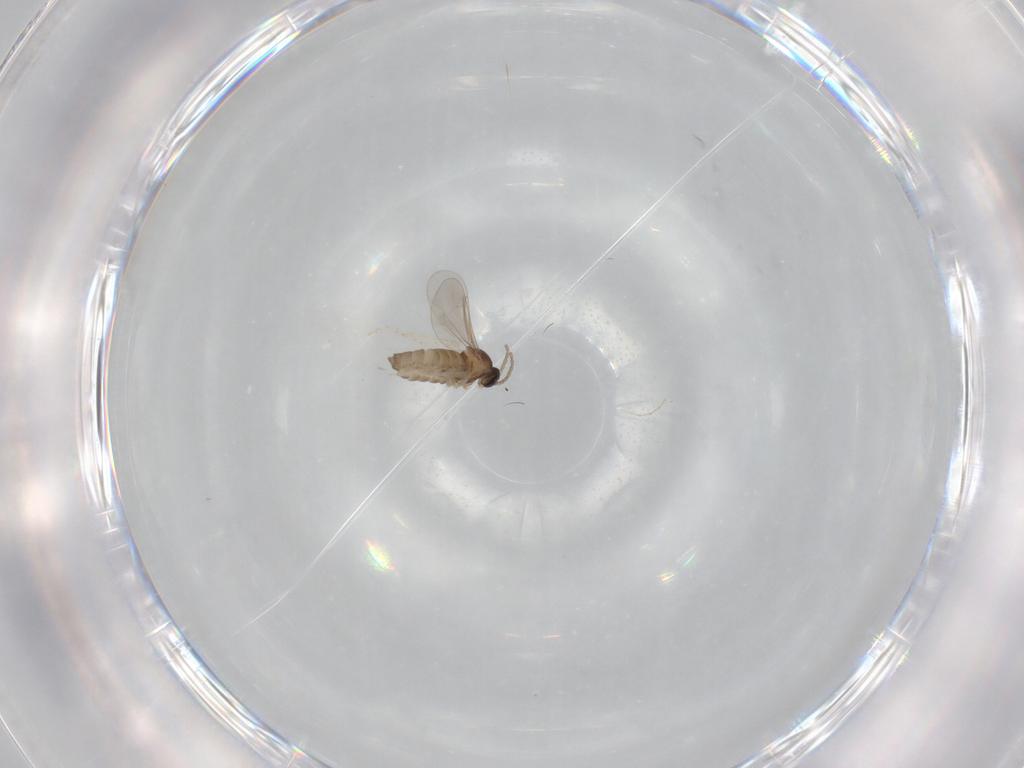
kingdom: Animalia
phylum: Arthropoda
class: Insecta
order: Diptera
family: Cecidomyiidae
